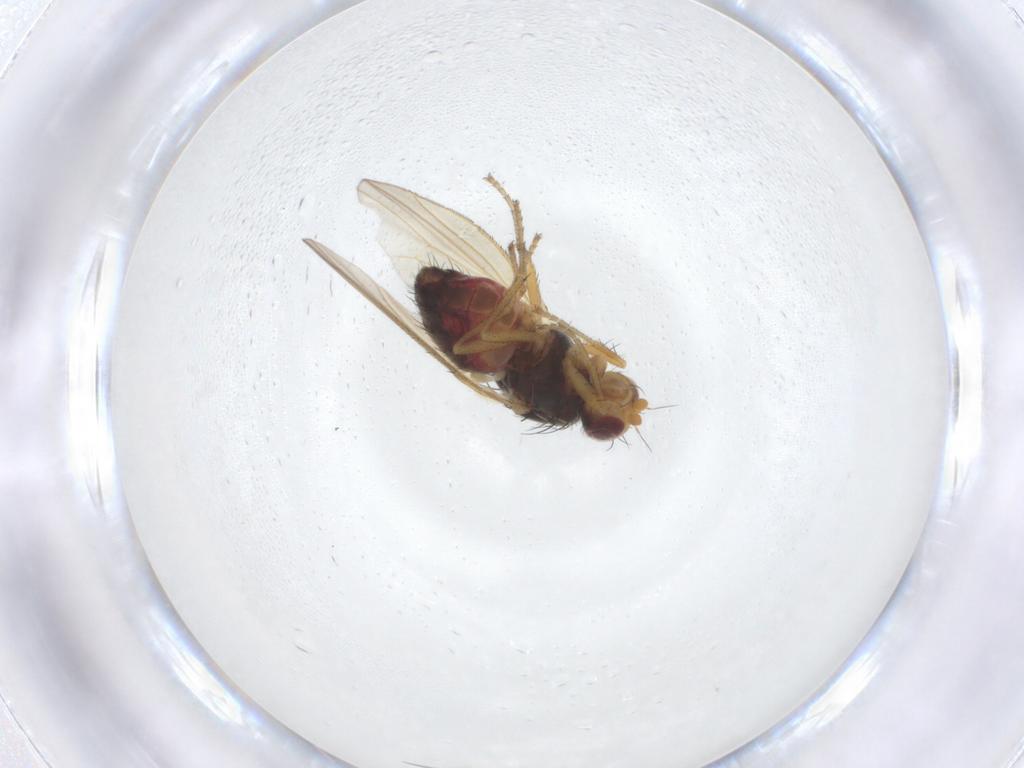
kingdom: Animalia
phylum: Arthropoda
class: Insecta
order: Diptera
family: Heleomyzidae
